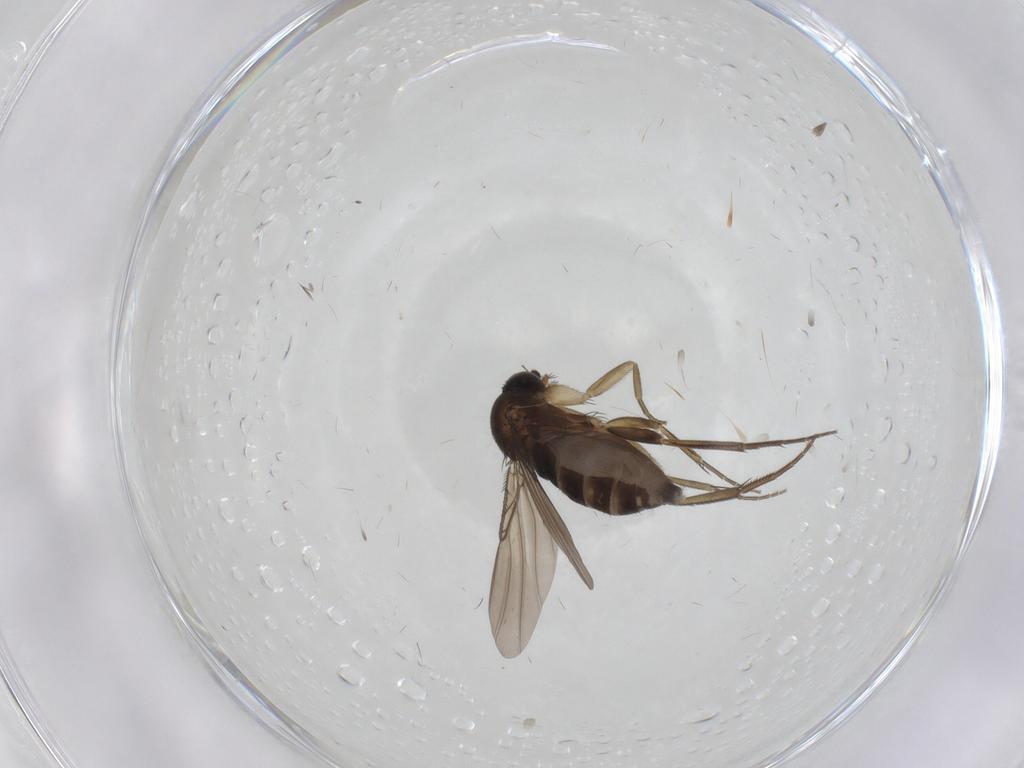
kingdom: Animalia
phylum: Arthropoda
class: Insecta
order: Diptera
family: Phoridae
